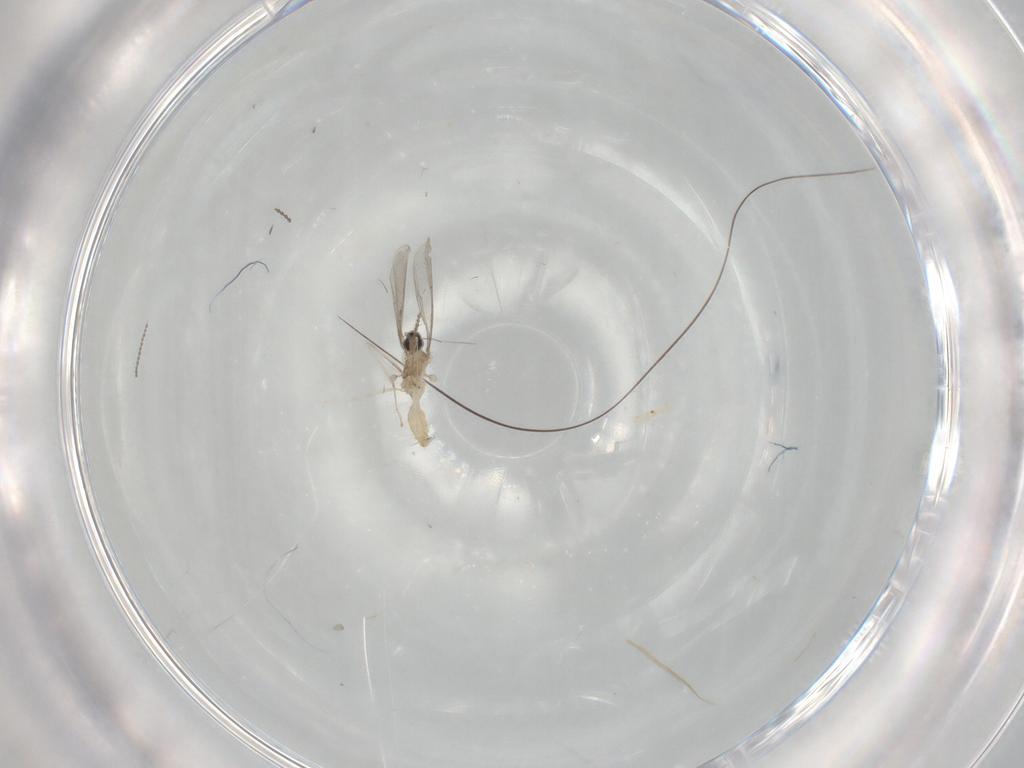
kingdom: Animalia
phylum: Arthropoda
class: Insecta
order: Diptera
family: Cecidomyiidae
